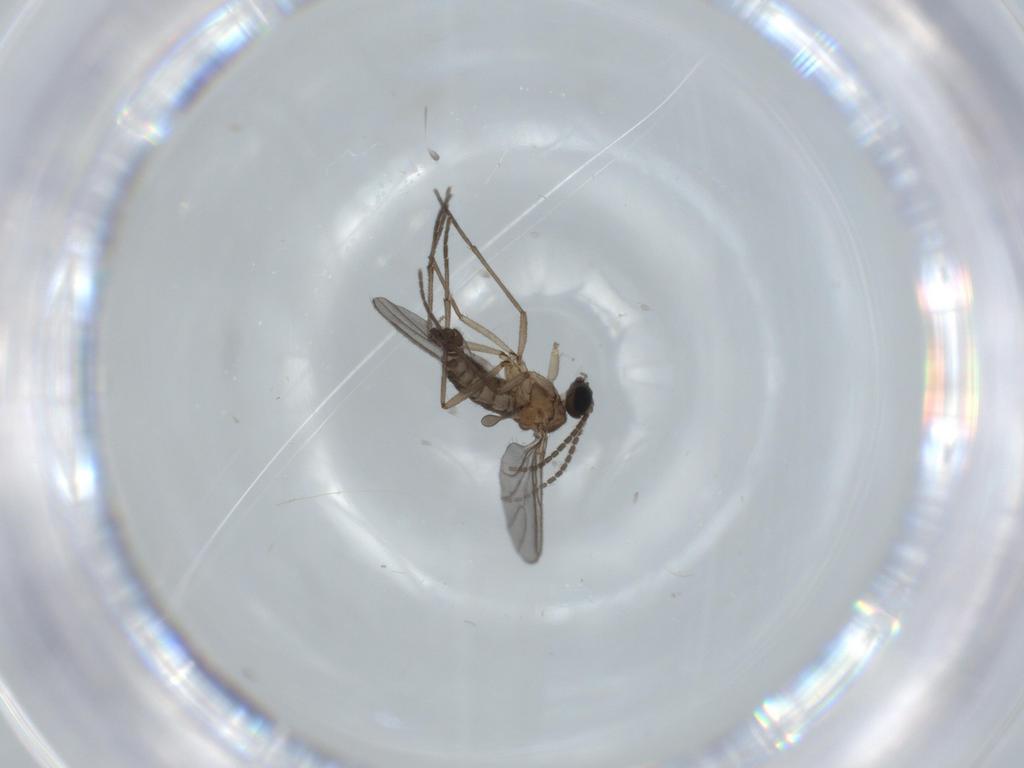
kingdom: Animalia
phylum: Arthropoda
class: Insecta
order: Diptera
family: Sciaridae
